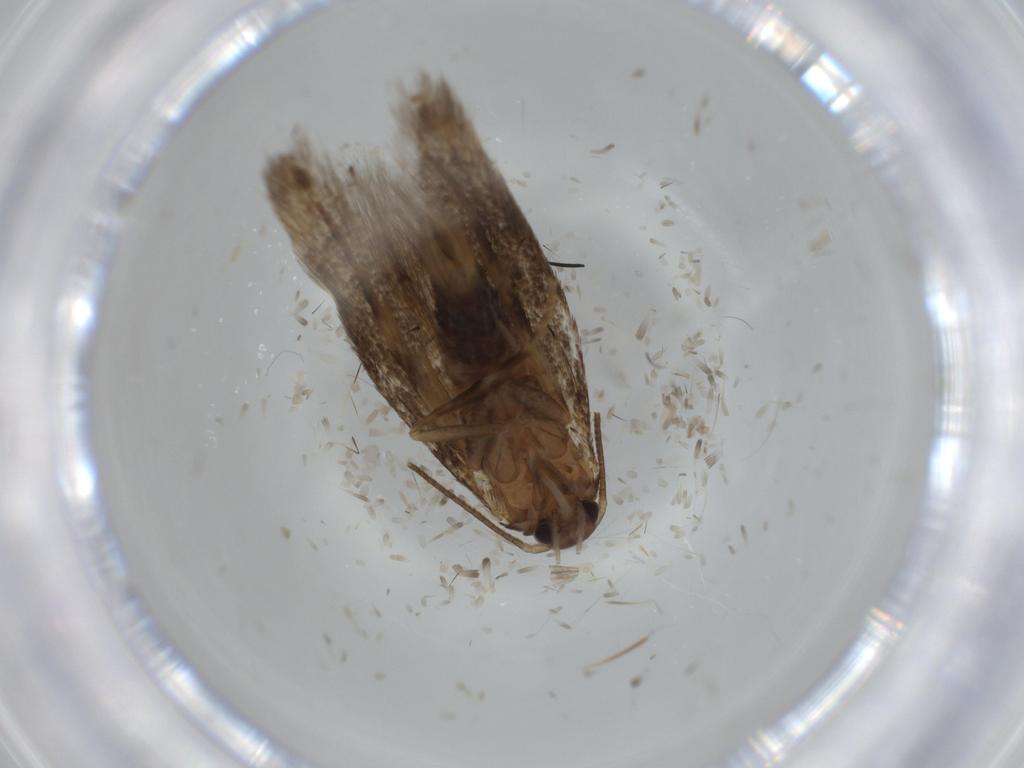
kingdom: Animalia
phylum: Arthropoda
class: Insecta
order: Lepidoptera
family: Elachistidae
